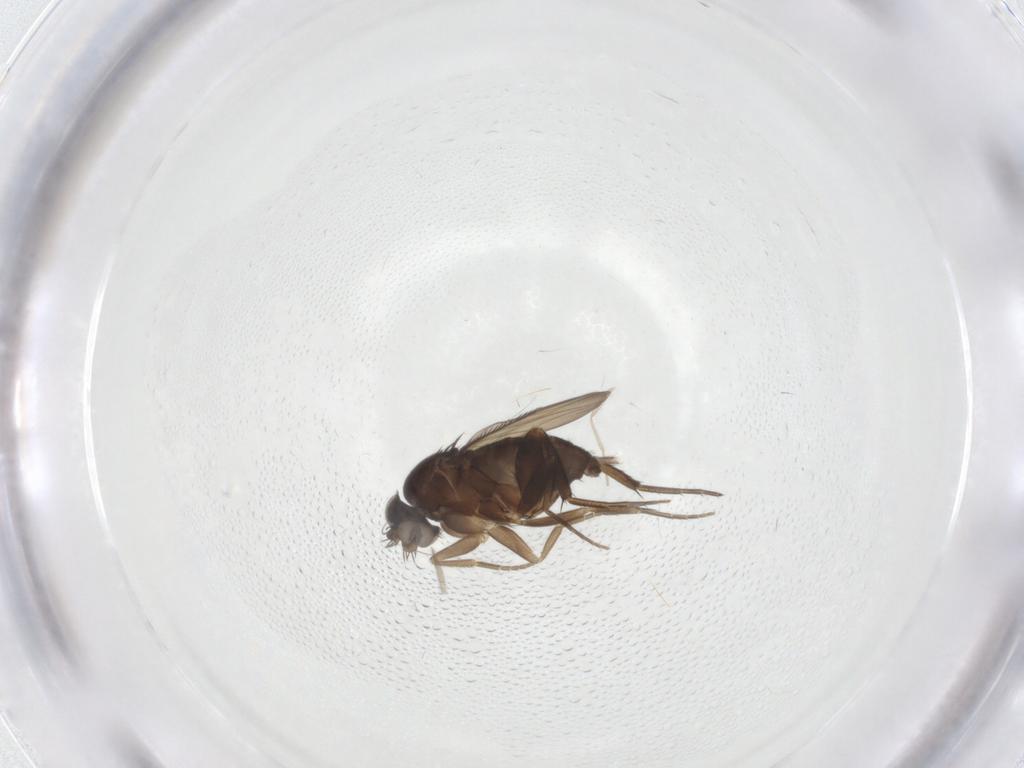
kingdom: Animalia
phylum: Arthropoda
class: Insecta
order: Diptera
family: Phoridae
